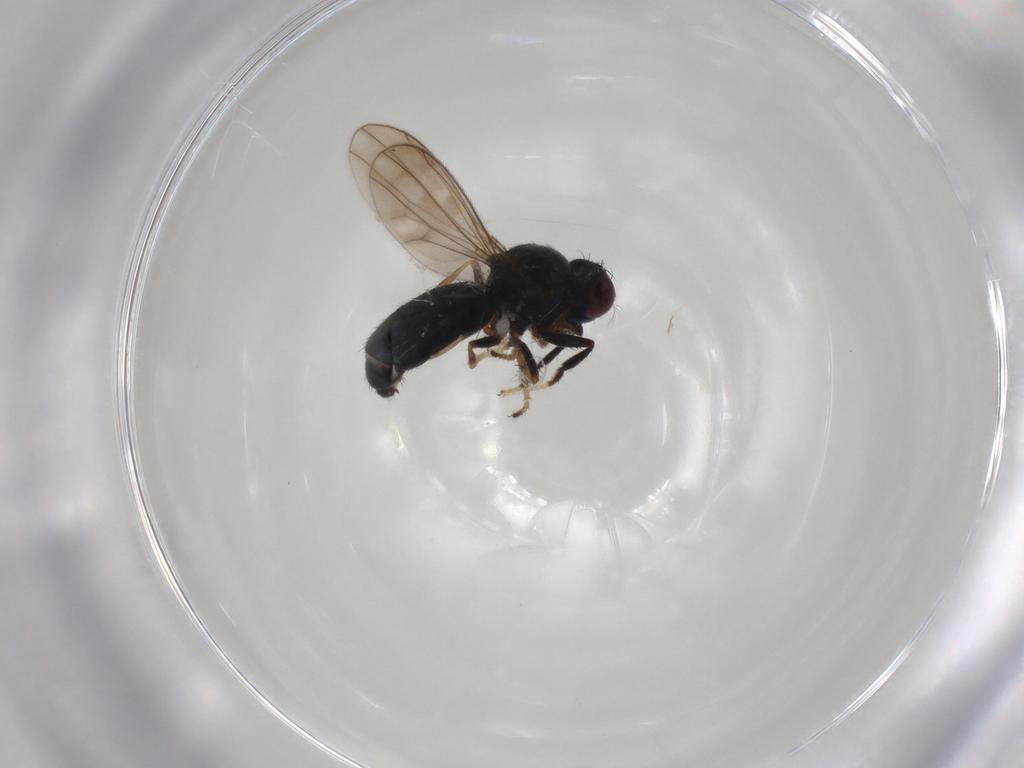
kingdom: Animalia
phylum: Arthropoda
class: Insecta
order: Diptera
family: Ephydridae
